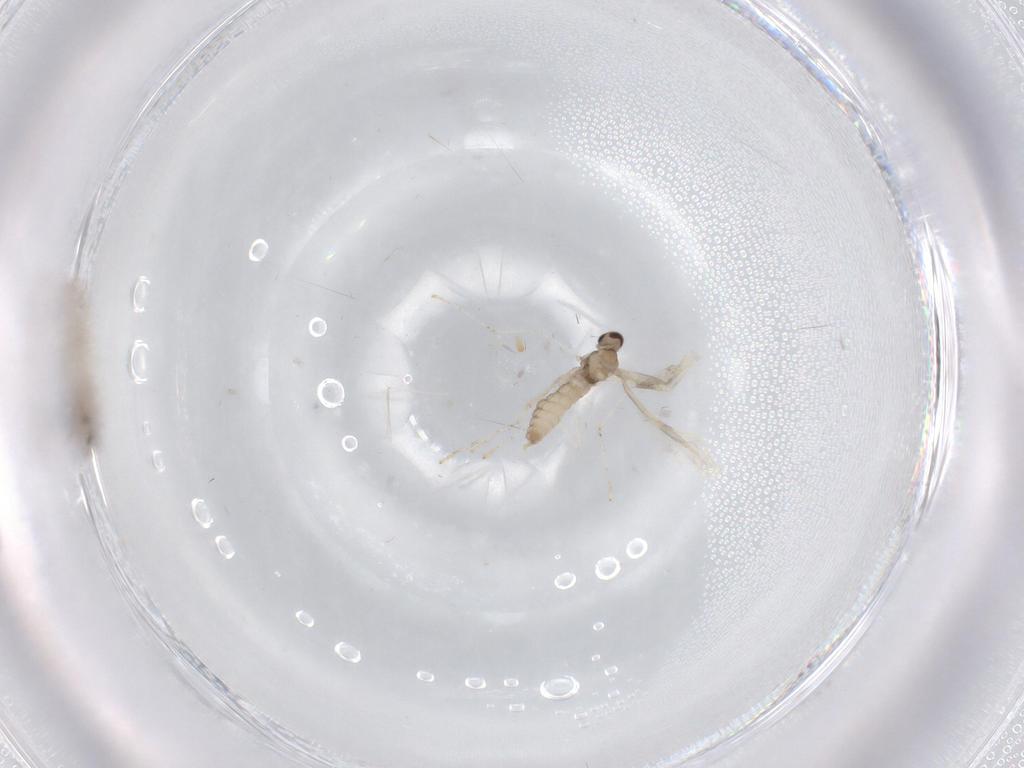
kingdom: Animalia
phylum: Arthropoda
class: Insecta
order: Diptera
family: Chironomidae
